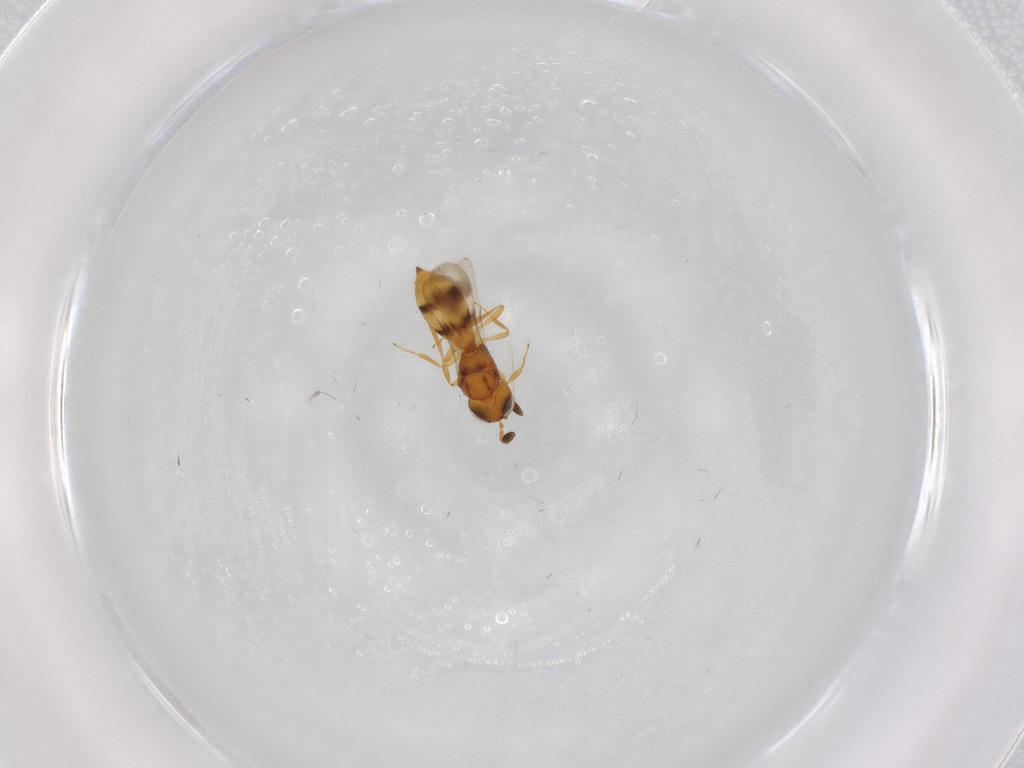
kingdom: Animalia
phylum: Arthropoda
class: Insecta
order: Hymenoptera
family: Scelionidae
